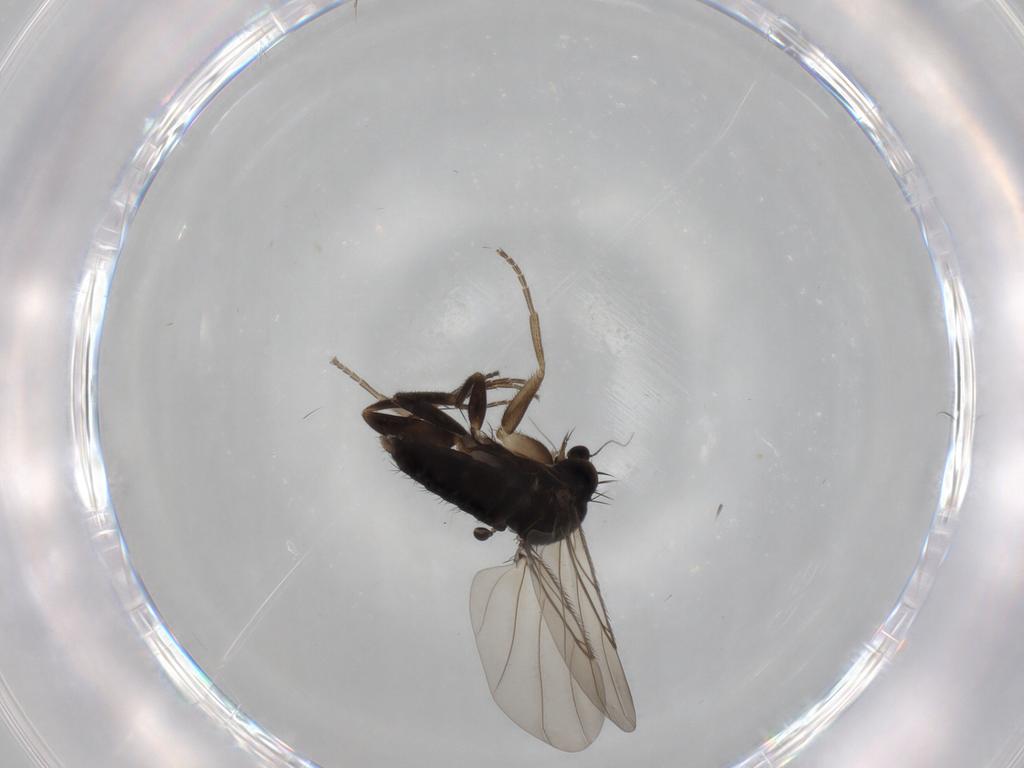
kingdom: Animalia
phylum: Arthropoda
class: Insecta
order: Diptera
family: Phoridae
